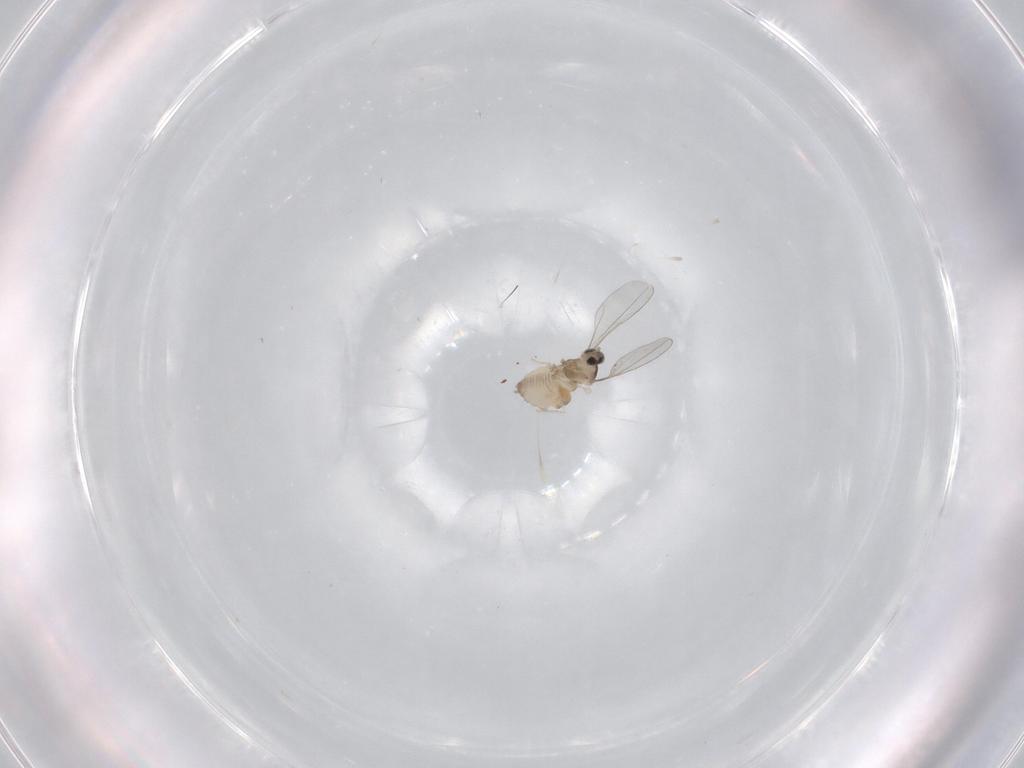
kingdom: Animalia
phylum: Arthropoda
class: Insecta
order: Diptera
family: Cecidomyiidae
